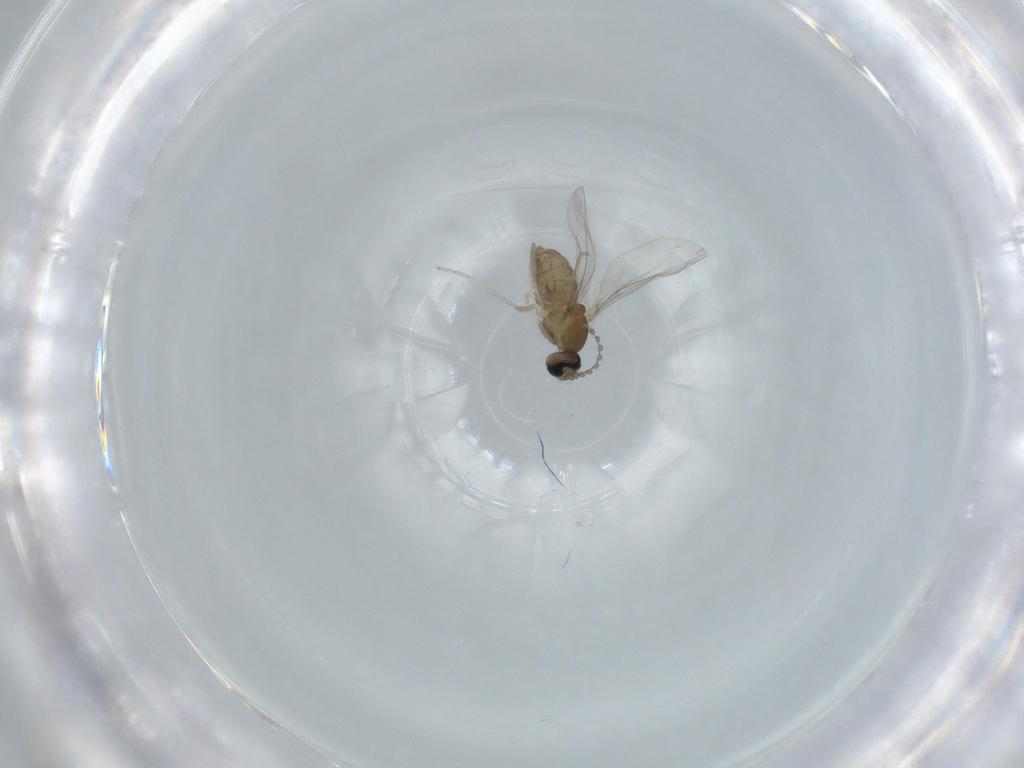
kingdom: Animalia
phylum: Arthropoda
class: Insecta
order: Diptera
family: Cecidomyiidae
